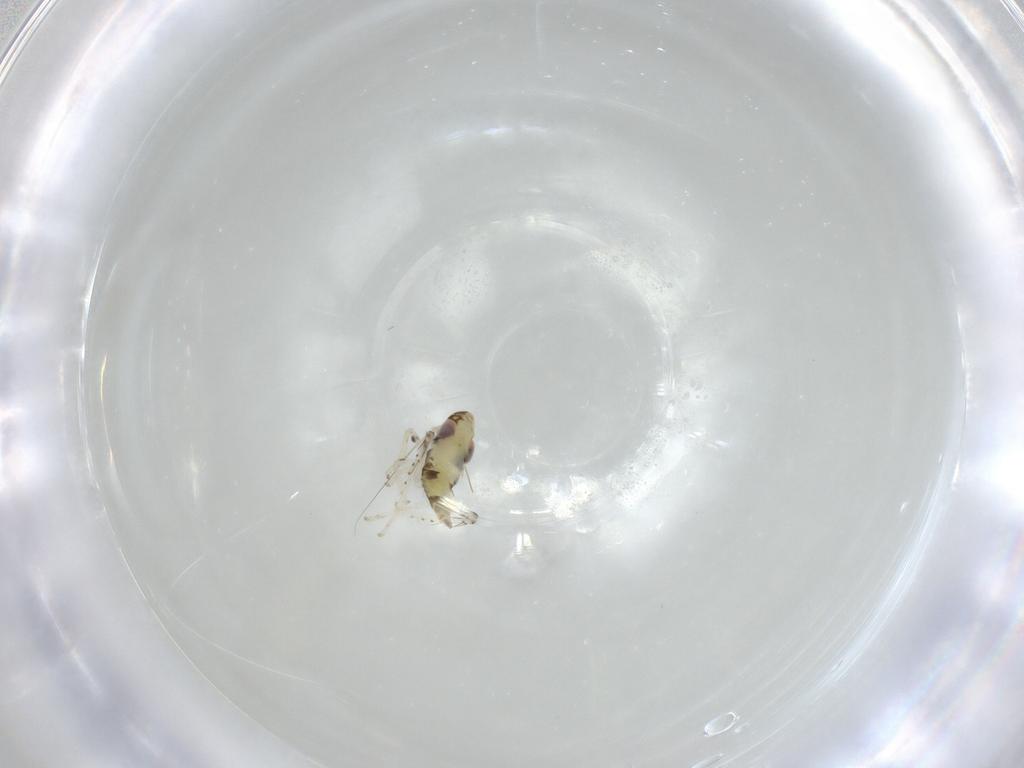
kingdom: Animalia
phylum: Arthropoda
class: Insecta
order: Hemiptera
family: Cicadellidae
